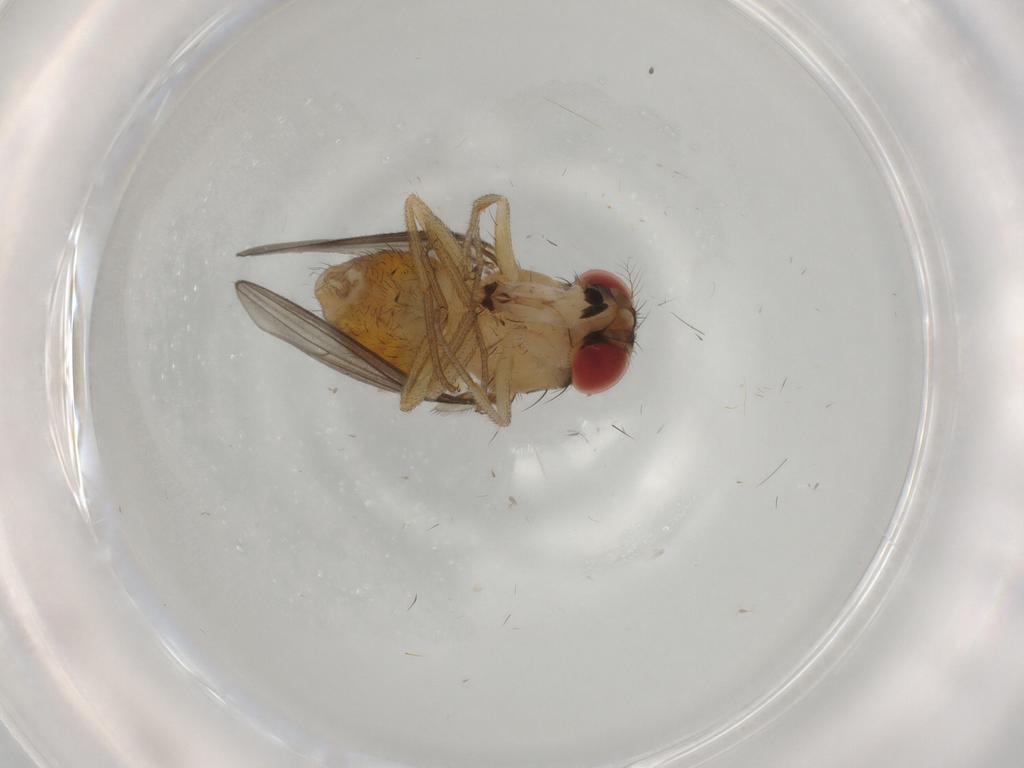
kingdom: Animalia
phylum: Arthropoda
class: Insecta
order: Diptera
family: Drosophilidae
